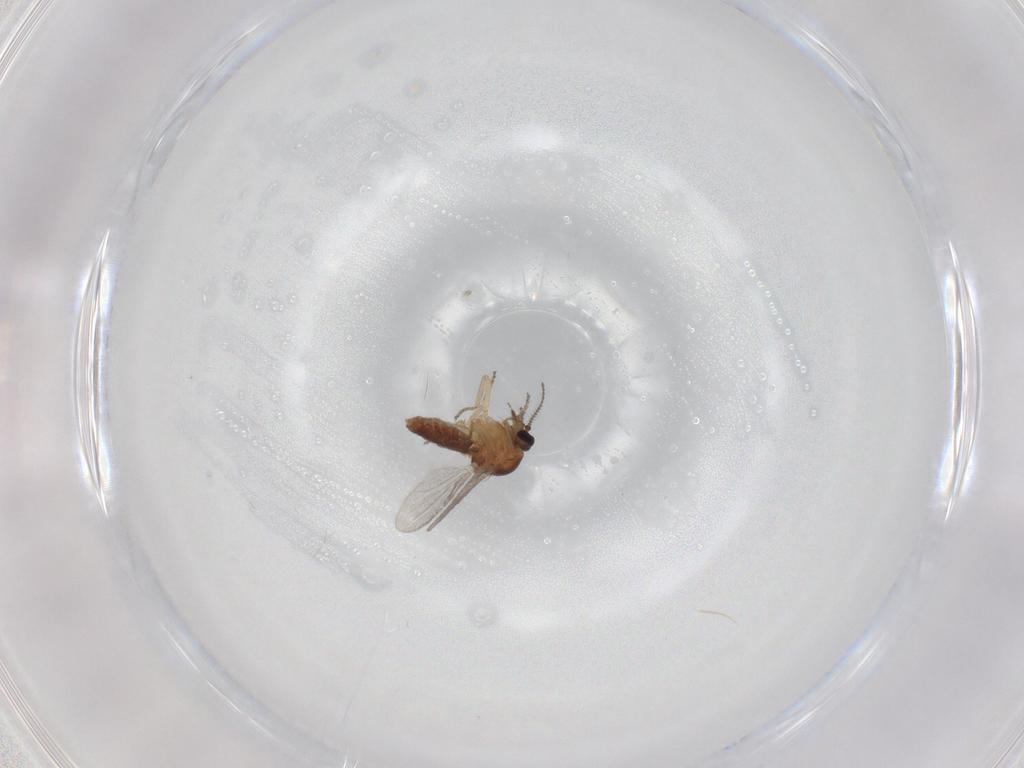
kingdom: Animalia
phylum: Arthropoda
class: Insecta
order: Diptera
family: Ceratopogonidae
